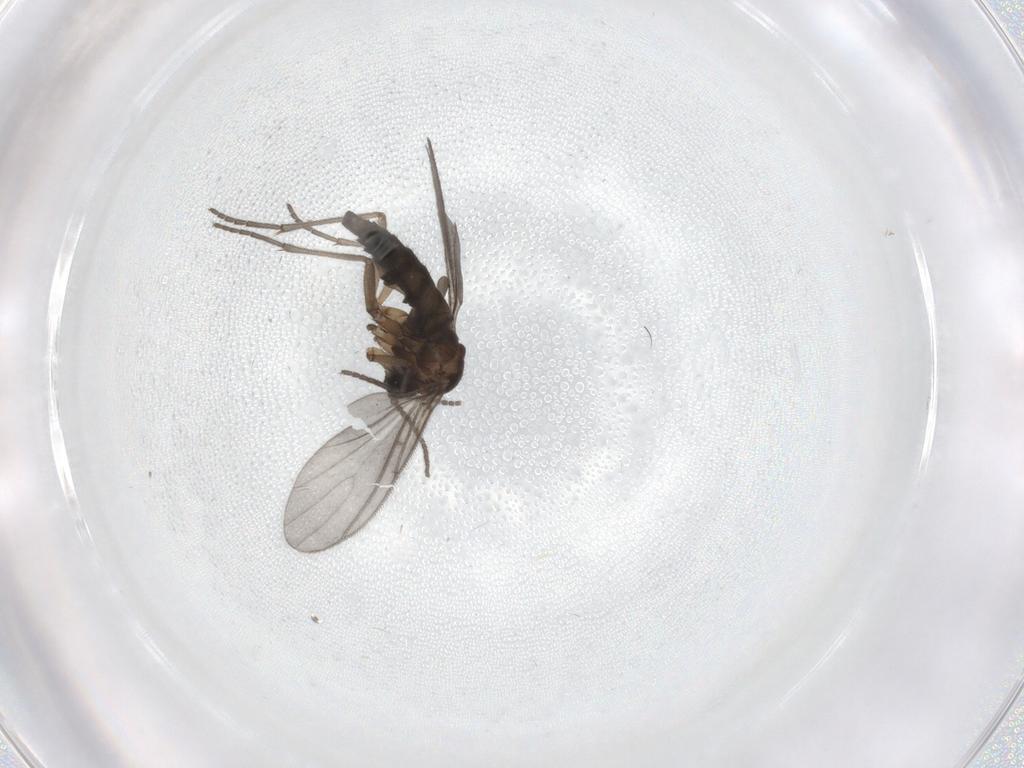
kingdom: Animalia
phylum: Arthropoda
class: Insecta
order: Diptera
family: Sciaridae
